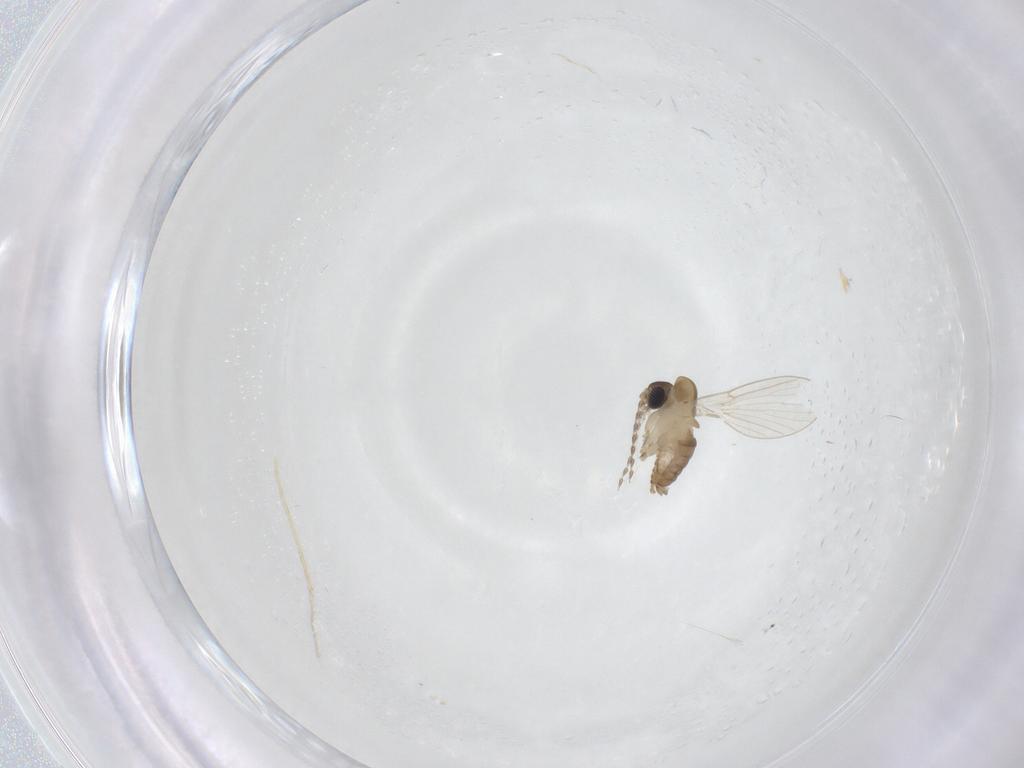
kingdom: Animalia
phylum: Arthropoda
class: Insecta
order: Diptera
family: Psychodidae
